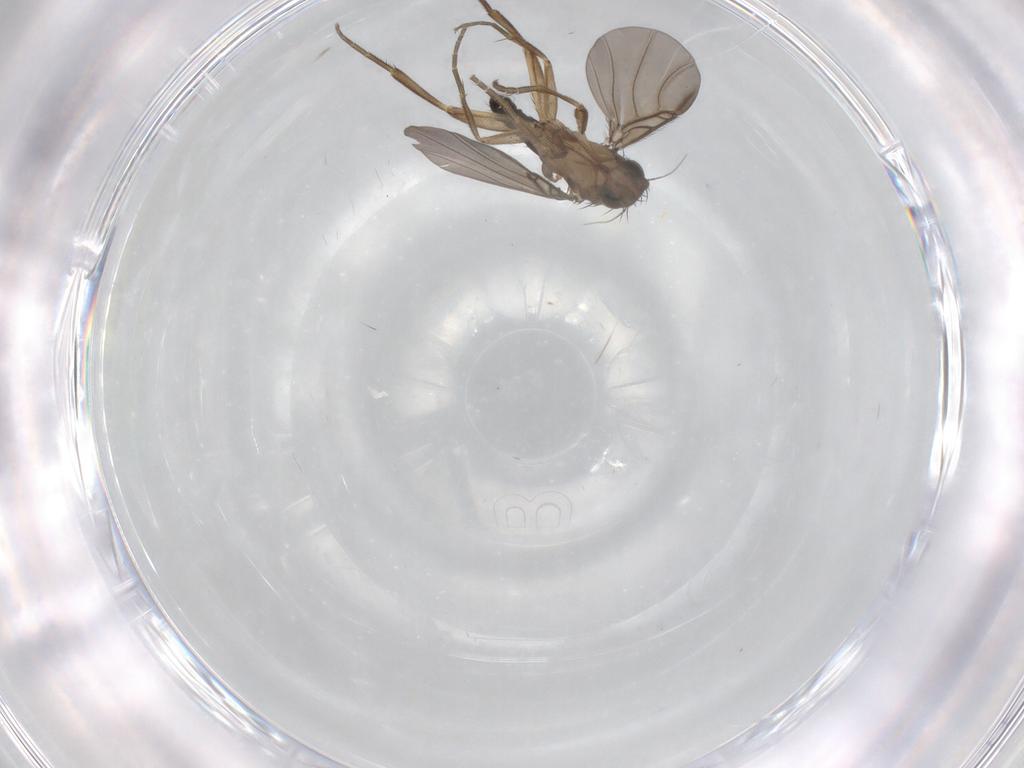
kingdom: Animalia
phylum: Arthropoda
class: Insecta
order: Diptera
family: Phoridae
